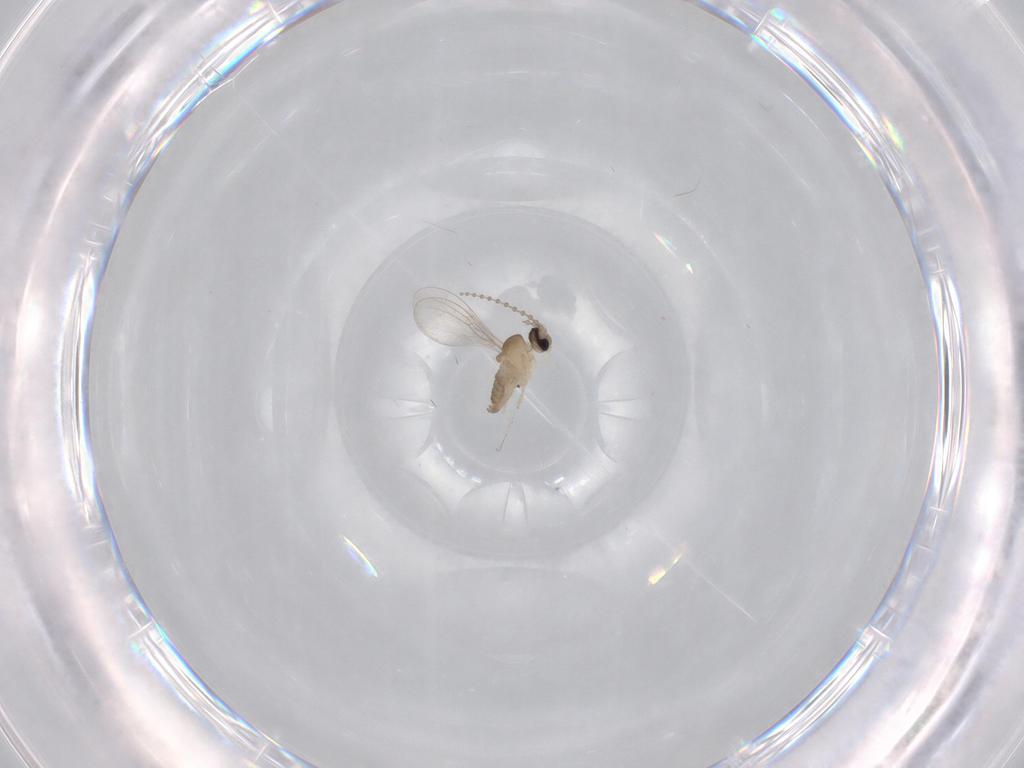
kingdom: Animalia
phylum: Arthropoda
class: Insecta
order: Diptera
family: Cecidomyiidae
